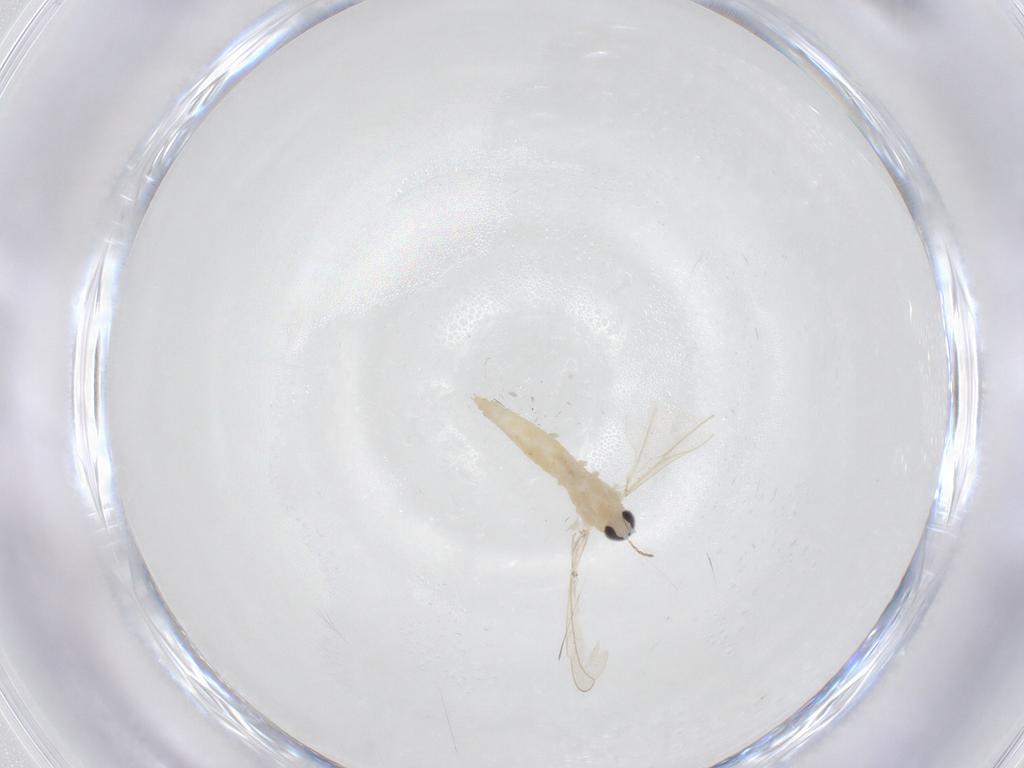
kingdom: Animalia
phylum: Arthropoda
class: Insecta
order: Diptera
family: Cecidomyiidae
